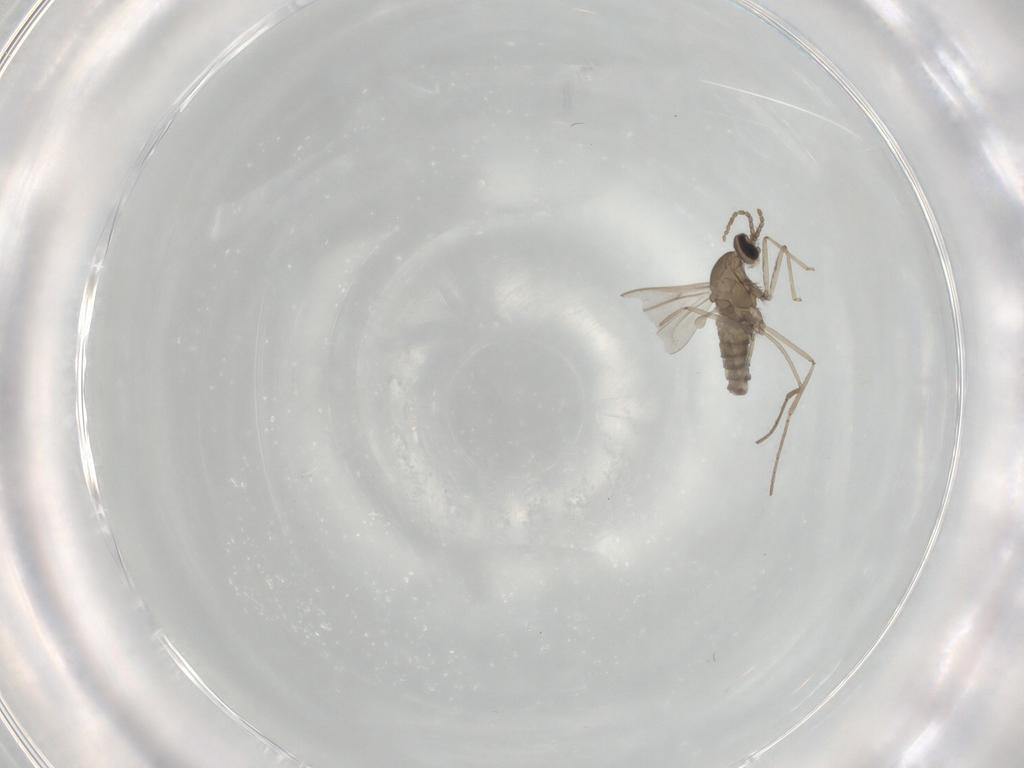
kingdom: Animalia
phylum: Arthropoda
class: Insecta
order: Diptera
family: Cecidomyiidae
